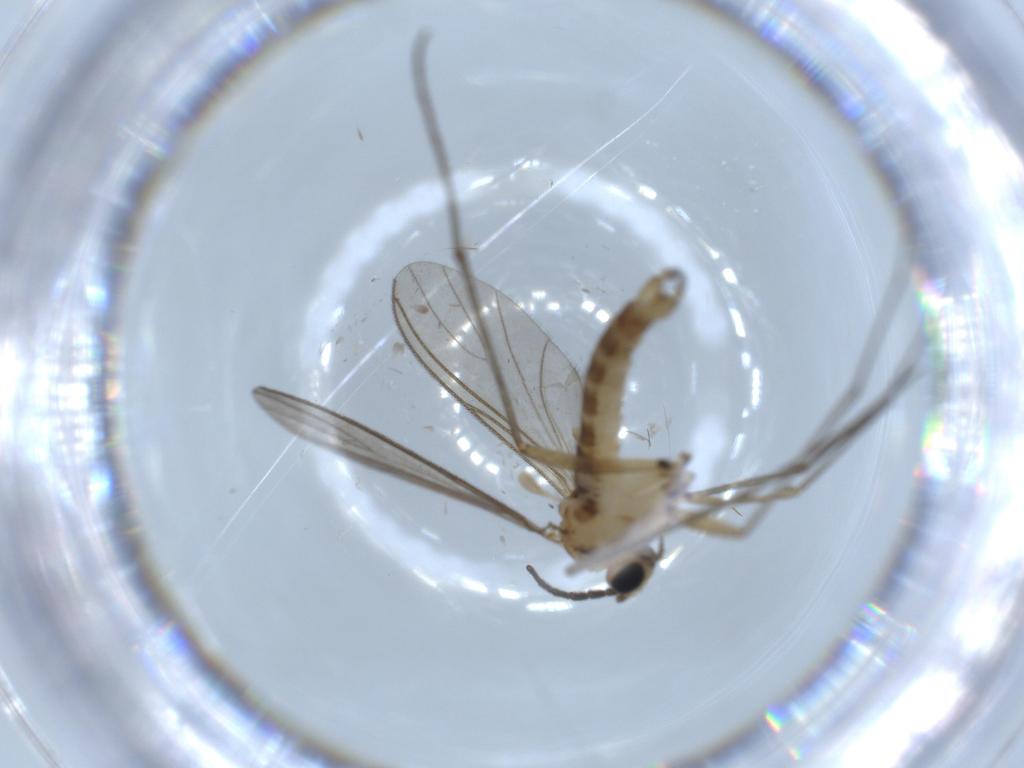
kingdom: Animalia
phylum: Arthropoda
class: Insecta
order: Diptera
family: Sciaridae
